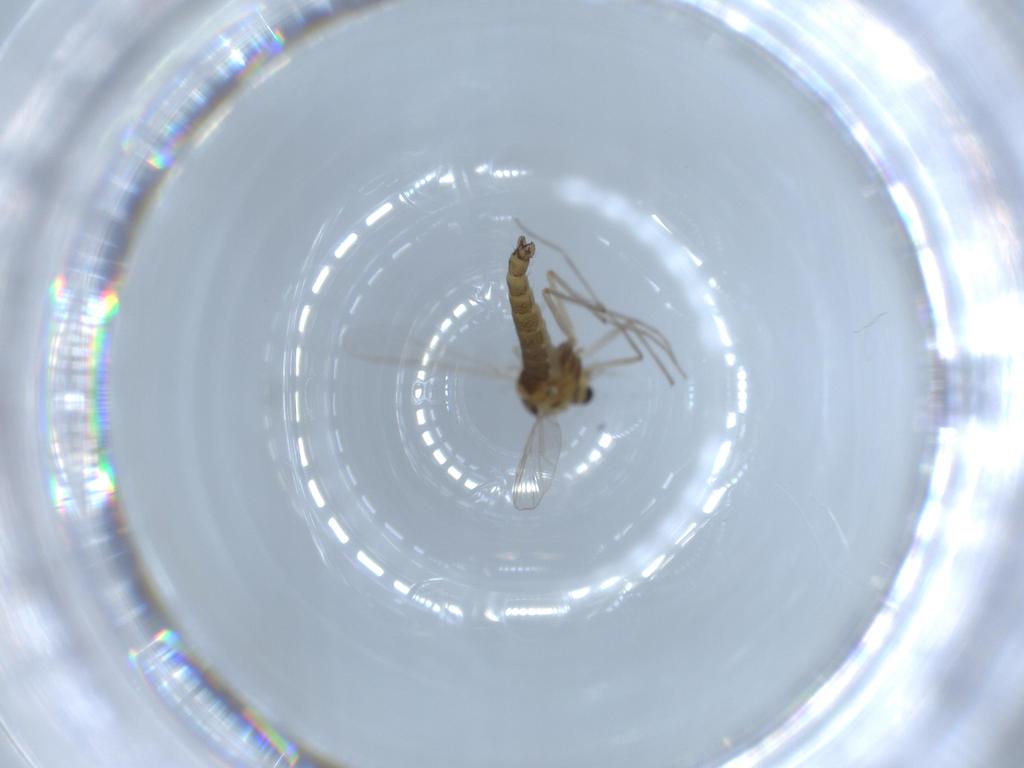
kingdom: Animalia
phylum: Arthropoda
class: Insecta
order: Diptera
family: Chironomidae
